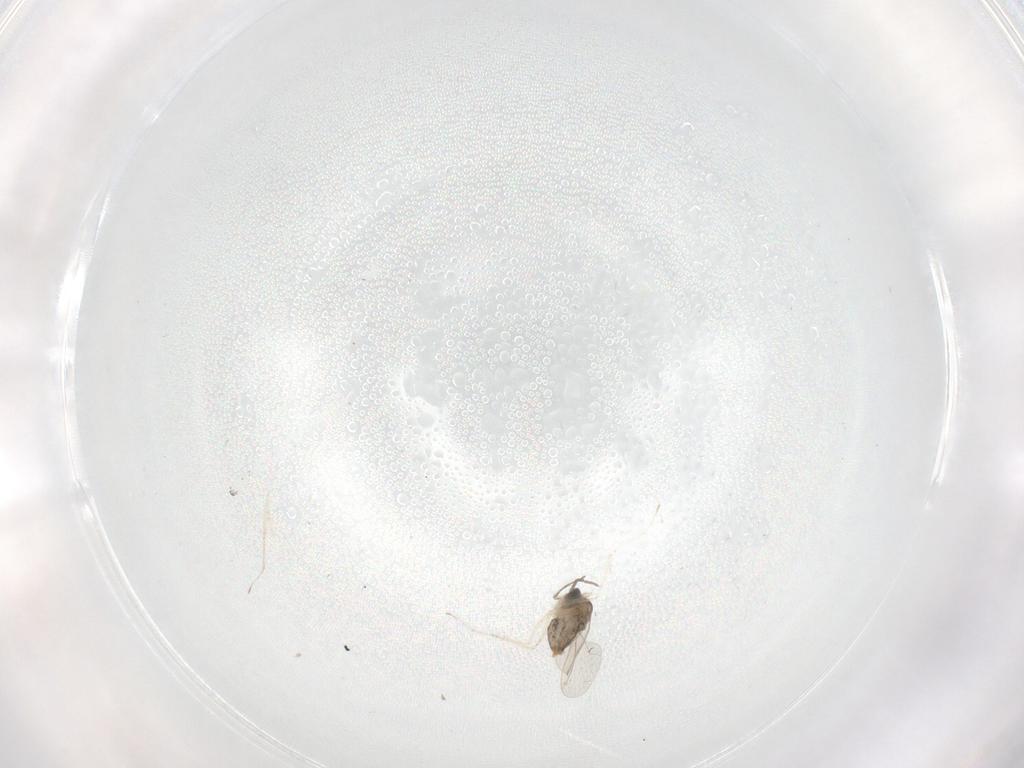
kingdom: Animalia
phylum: Arthropoda
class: Insecta
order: Diptera
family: Cecidomyiidae
